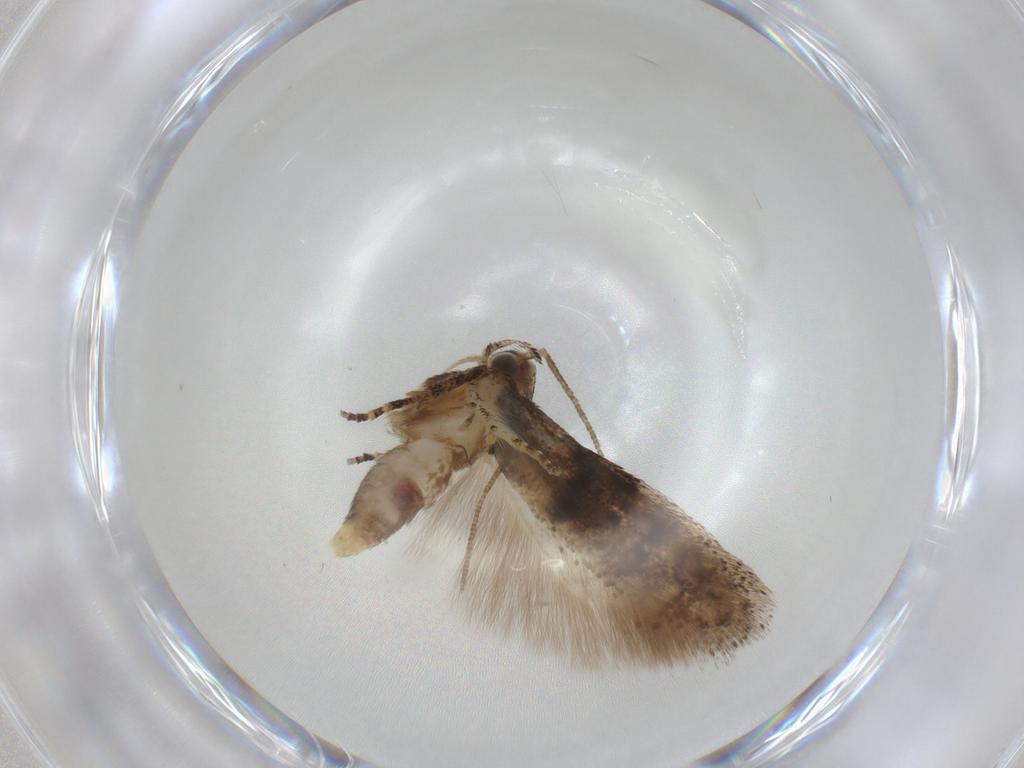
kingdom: Animalia
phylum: Arthropoda
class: Insecta
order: Lepidoptera
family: Gelechiidae
